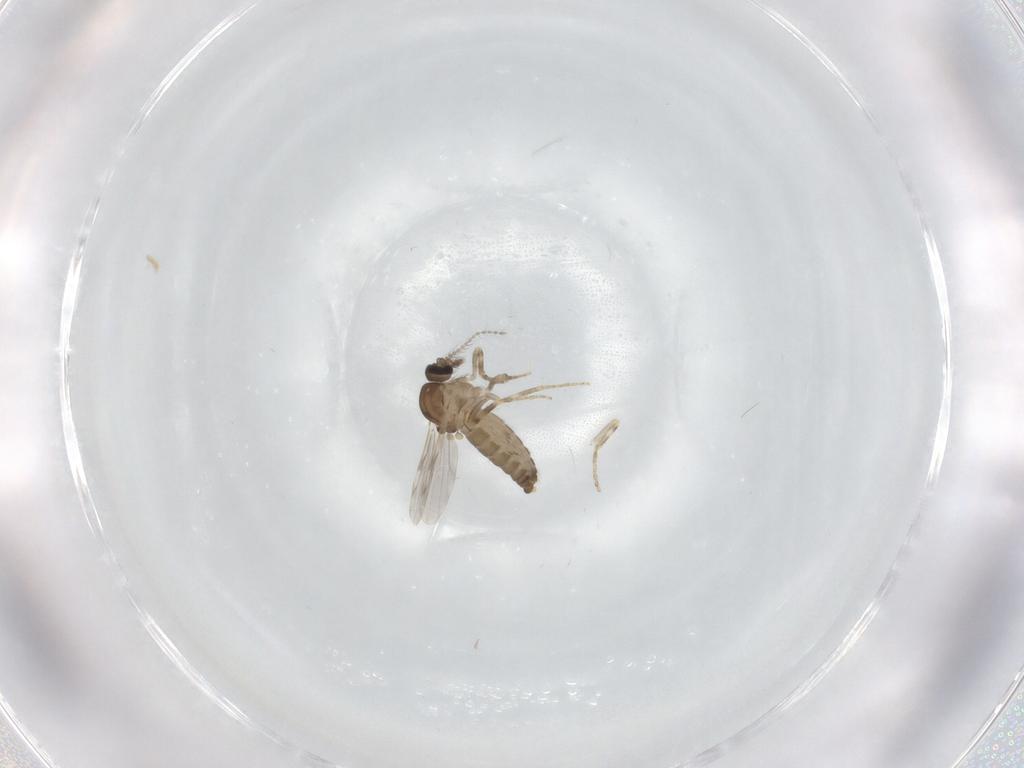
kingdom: Animalia
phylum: Arthropoda
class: Insecta
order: Diptera
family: Ceratopogonidae
